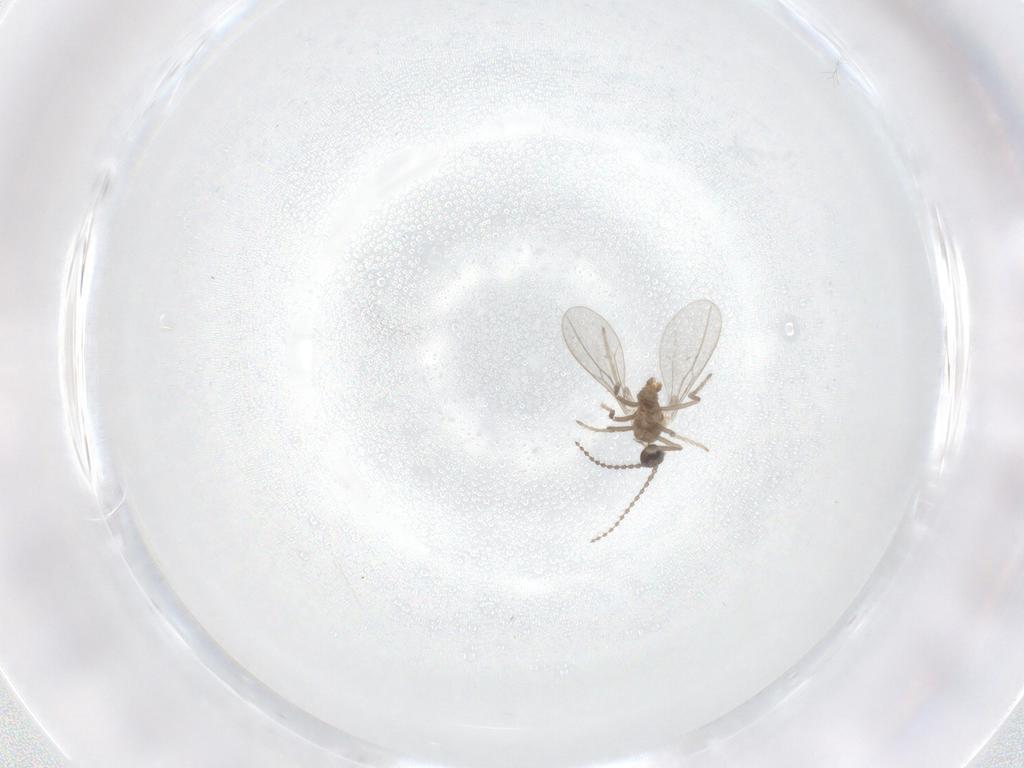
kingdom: Animalia
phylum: Arthropoda
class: Insecta
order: Diptera
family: Cecidomyiidae
